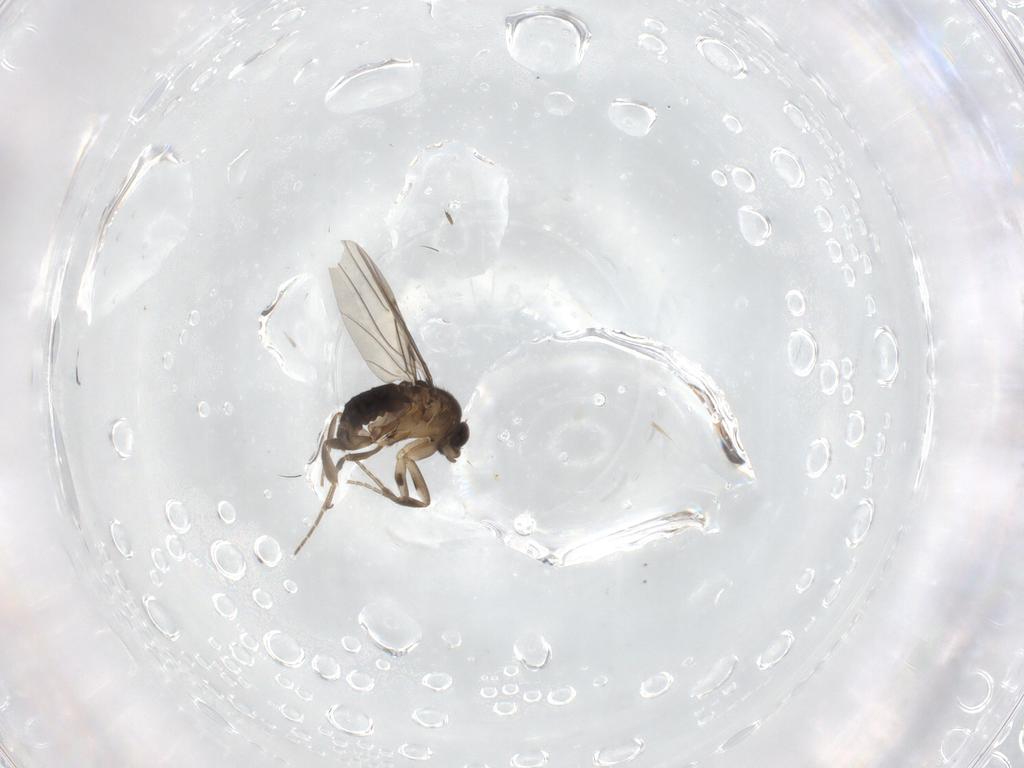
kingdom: Animalia
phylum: Arthropoda
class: Insecta
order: Diptera
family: Phoridae
